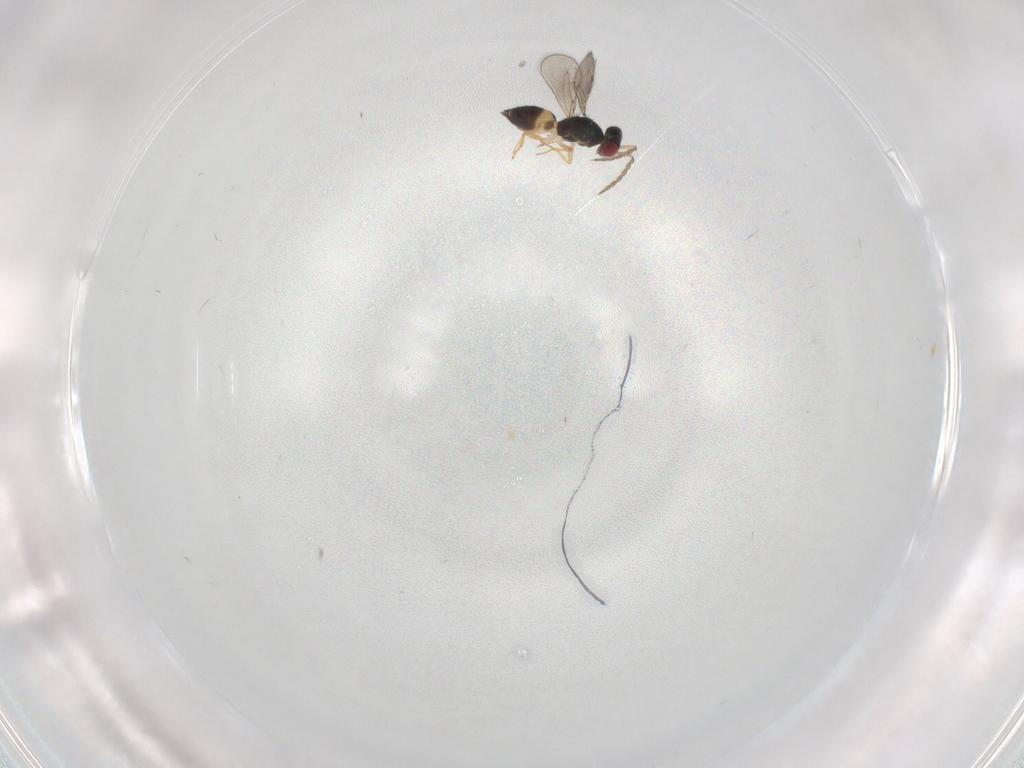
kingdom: Animalia
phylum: Arthropoda
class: Insecta
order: Hymenoptera
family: Eulophidae
